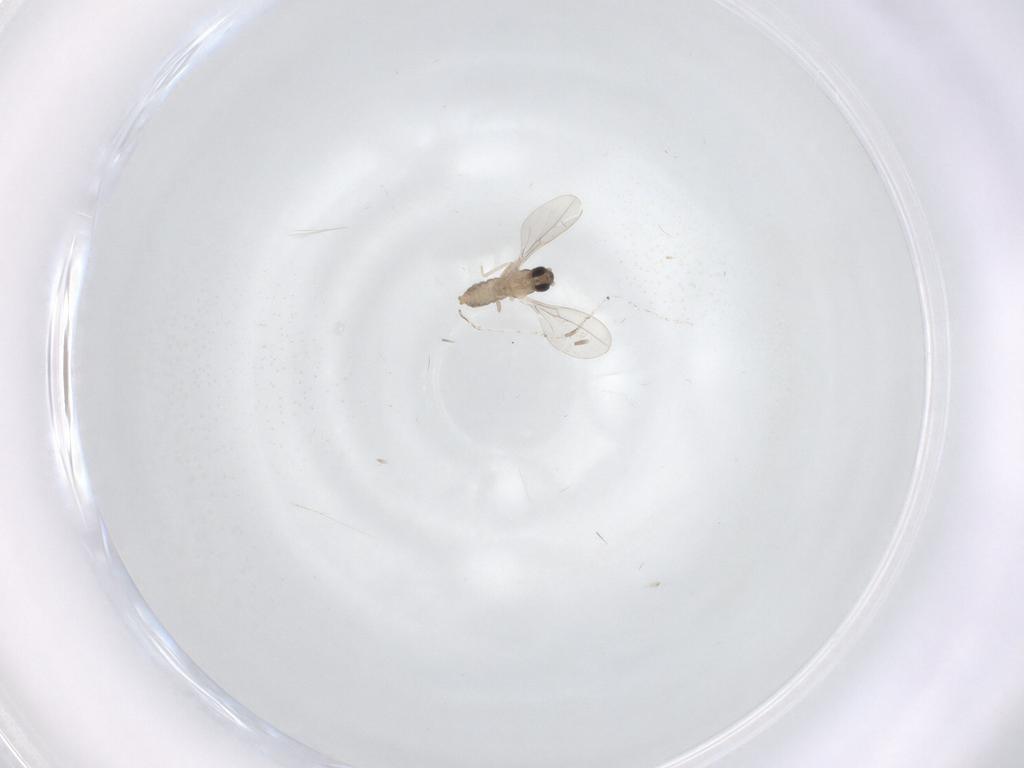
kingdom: Animalia
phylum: Arthropoda
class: Insecta
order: Diptera
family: Cecidomyiidae
